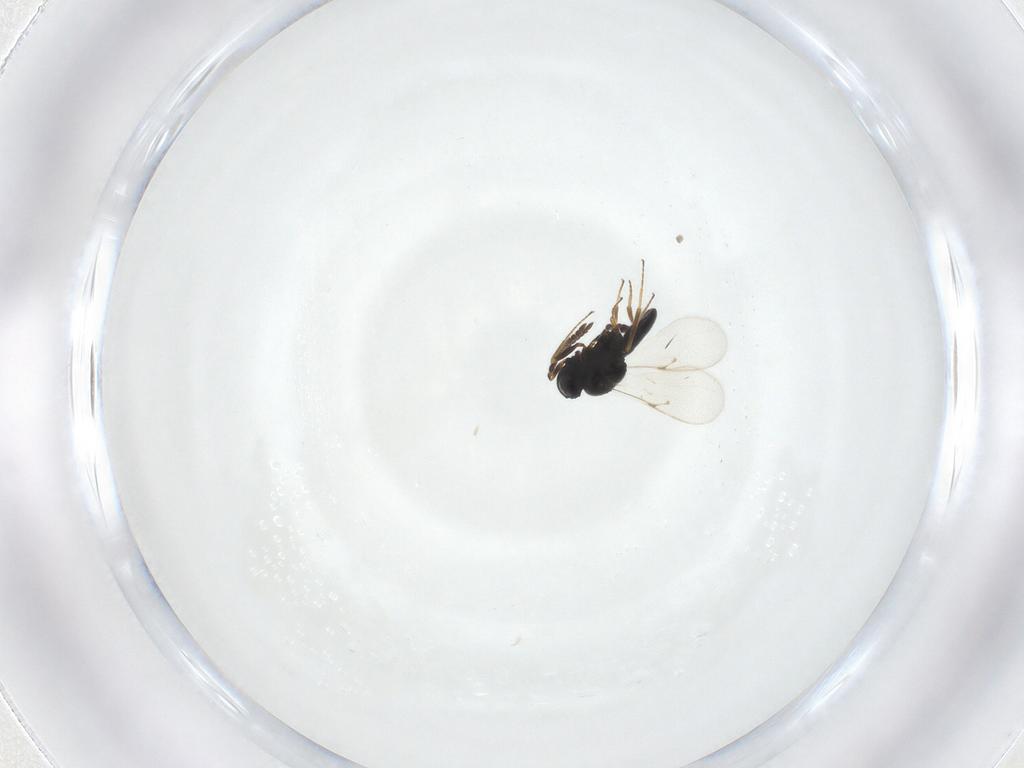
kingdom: Animalia
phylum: Arthropoda
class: Insecta
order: Hymenoptera
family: Scelionidae
